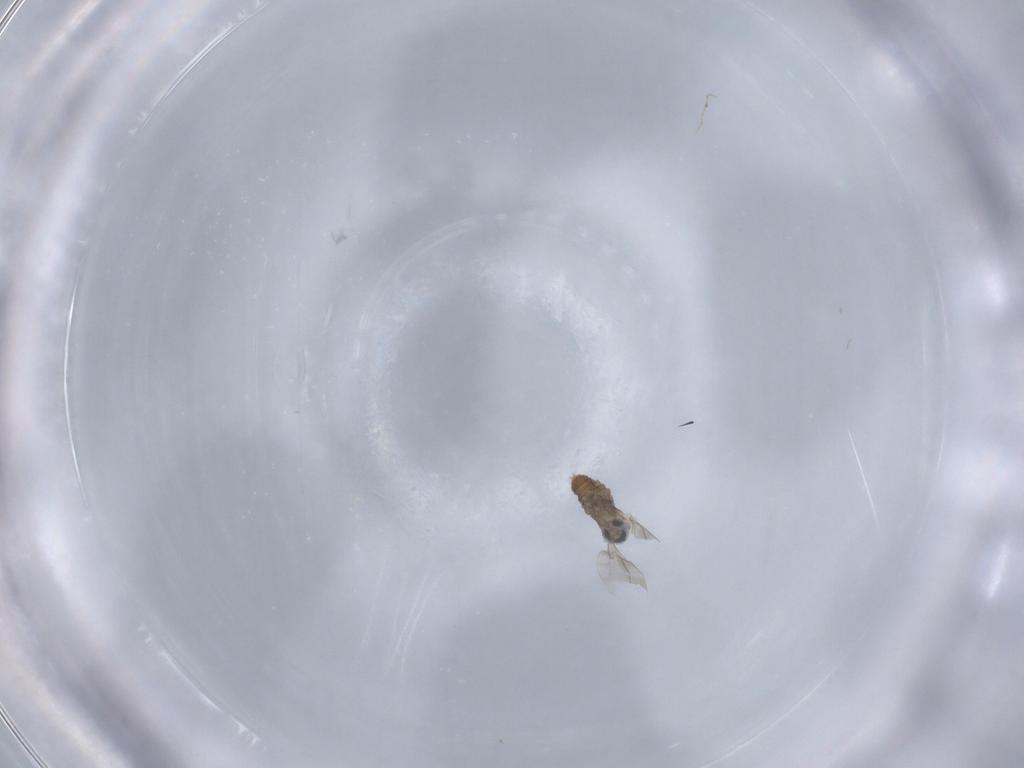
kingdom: Animalia
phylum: Arthropoda
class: Insecta
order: Diptera
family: Cecidomyiidae
